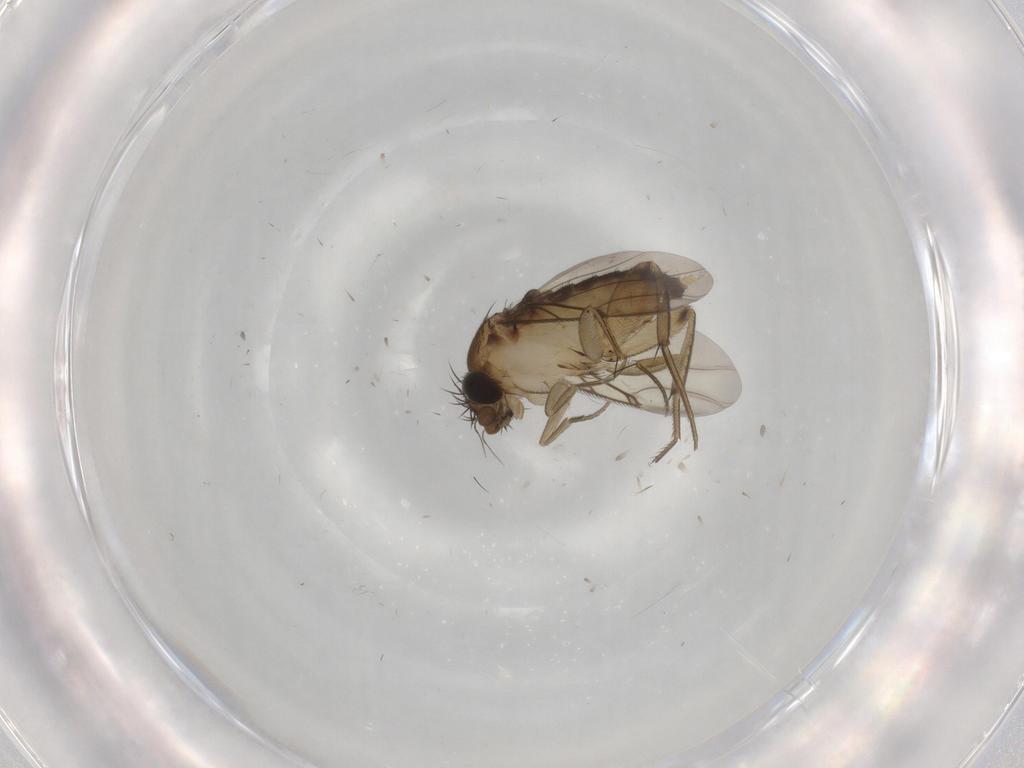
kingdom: Animalia
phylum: Arthropoda
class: Insecta
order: Diptera
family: Phoridae
